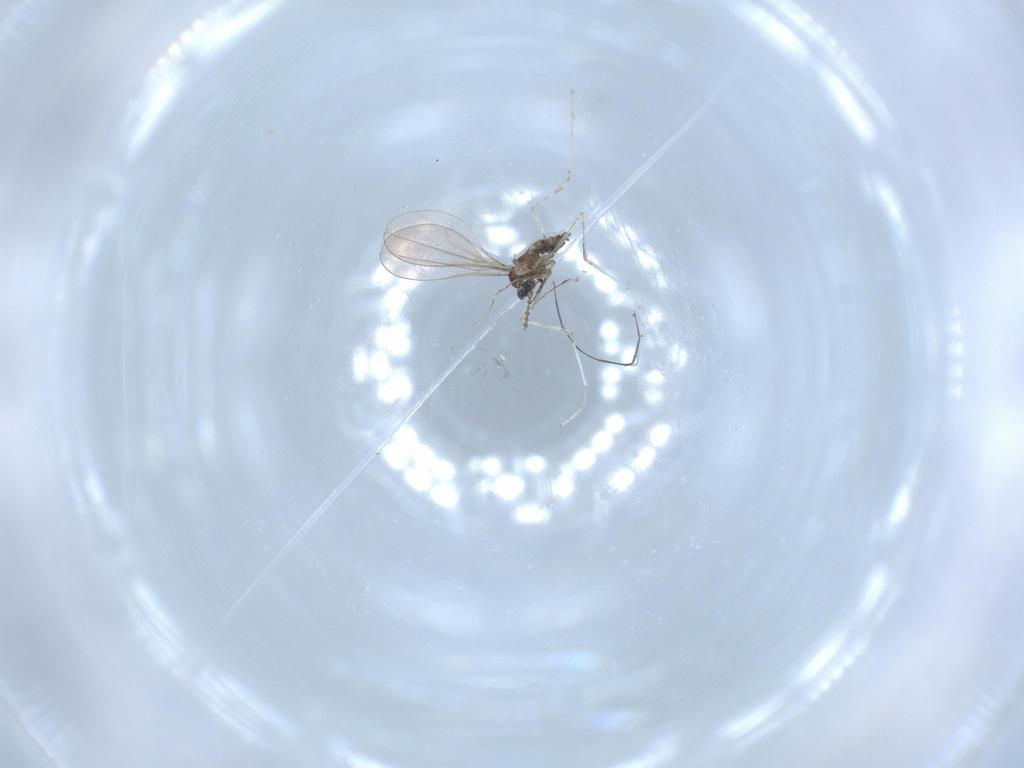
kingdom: Animalia
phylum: Arthropoda
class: Insecta
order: Diptera
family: Cecidomyiidae
